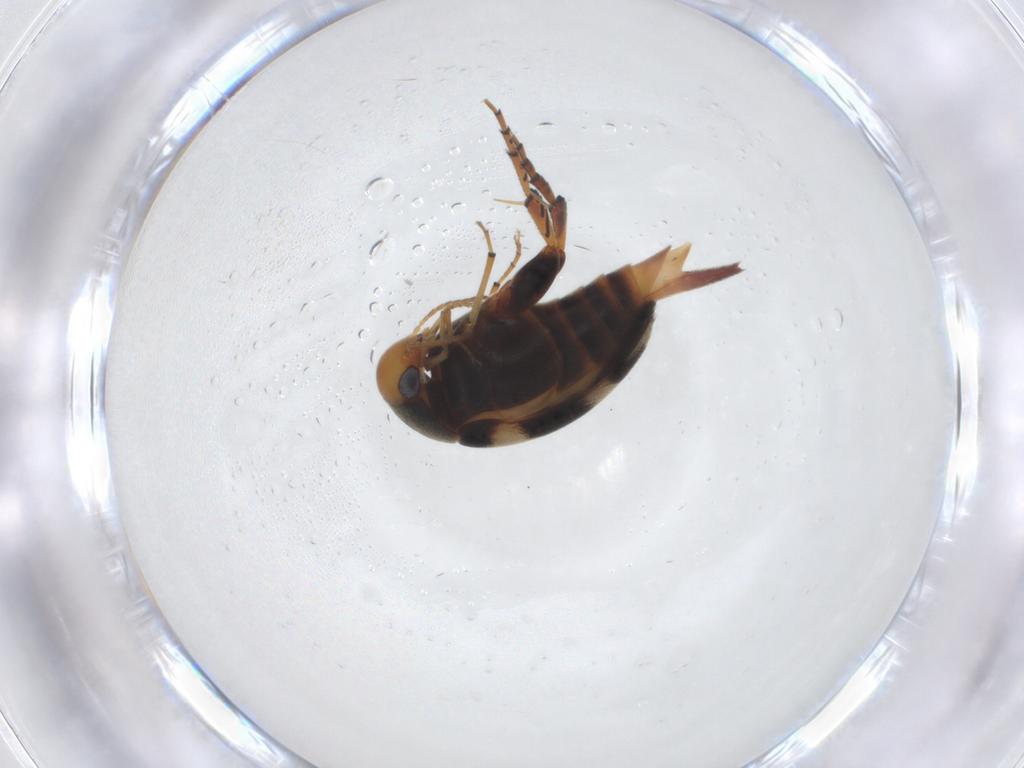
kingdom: Animalia
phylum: Arthropoda
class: Insecta
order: Coleoptera
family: Mordellidae
